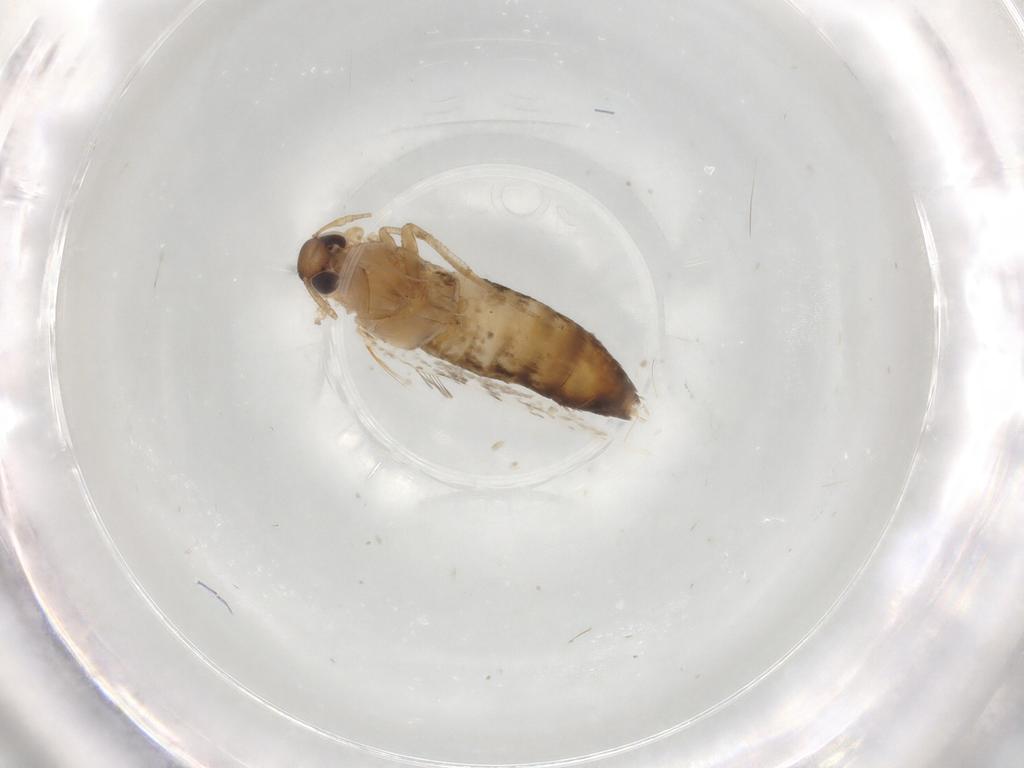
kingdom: Animalia
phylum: Arthropoda
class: Insecta
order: Lepidoptera
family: Cosmopterigidae
